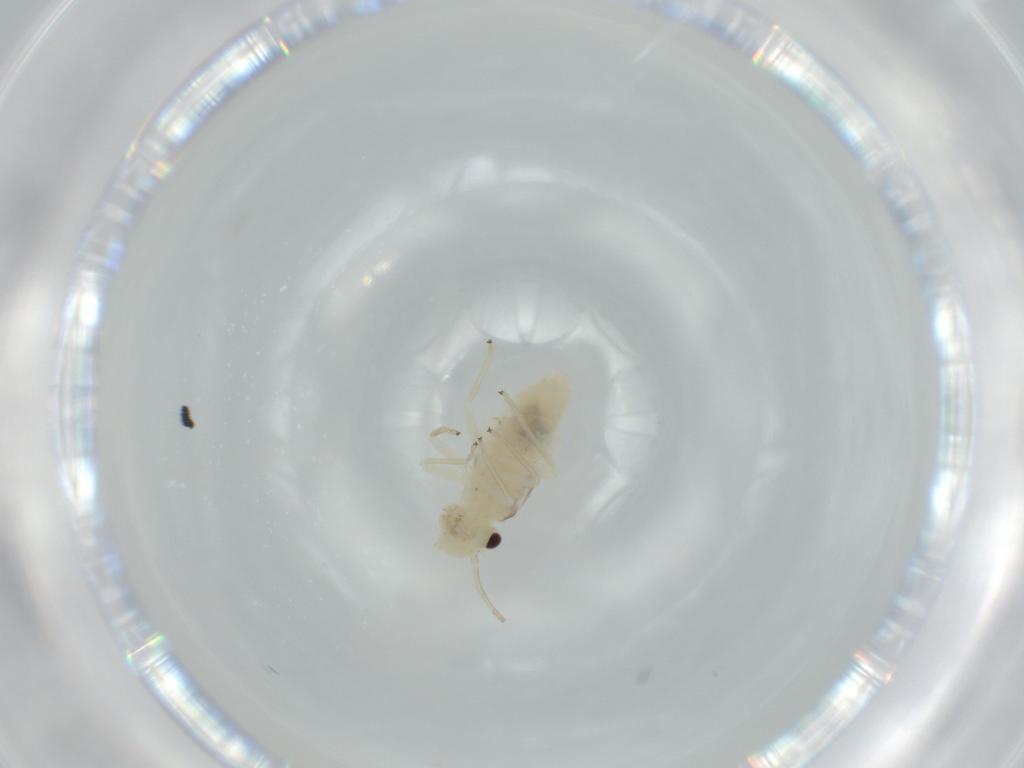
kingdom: Animalia
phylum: Arthropoda
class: Insecta
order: Psocodea
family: Caeciliusidae
